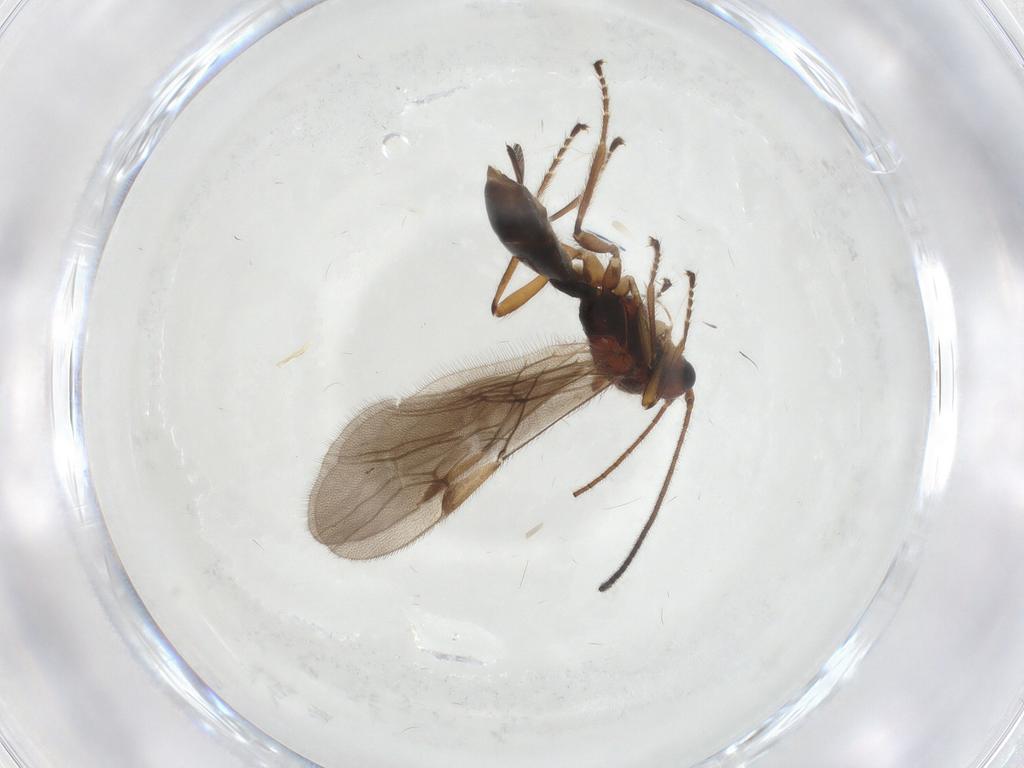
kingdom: Animalia
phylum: Arthropoda
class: Insecta
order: Hymenoptera
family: Braconidae
